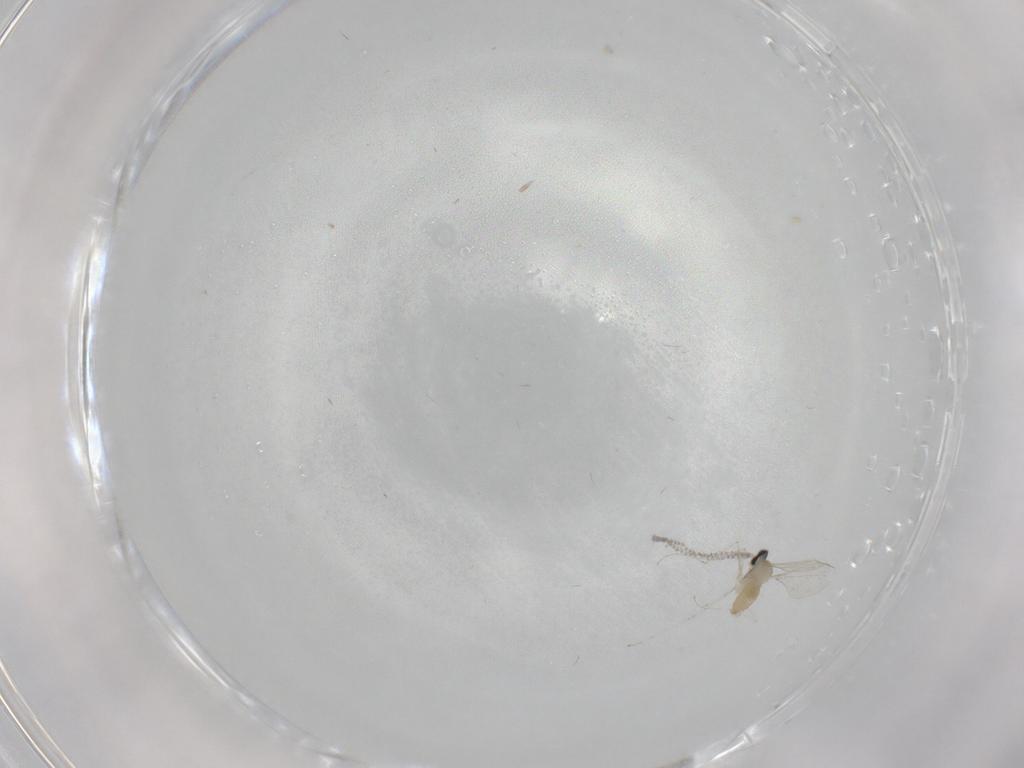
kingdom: Animalia
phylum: Arthropoda
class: Insecta
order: Diptera
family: Cecidomyiidae
